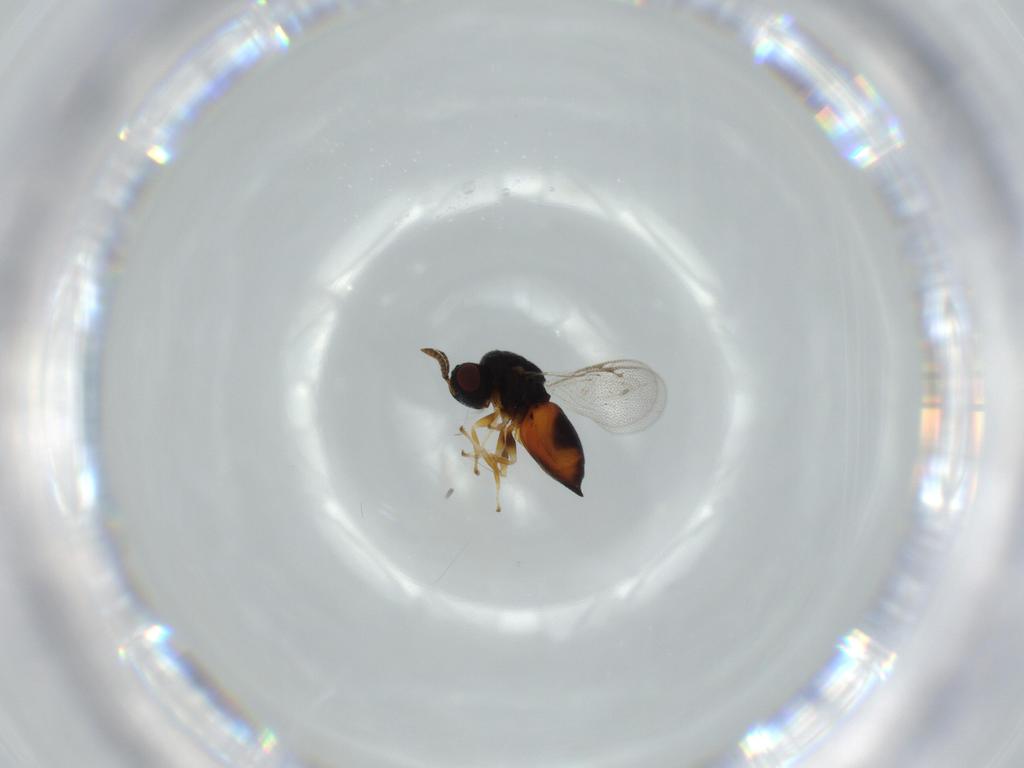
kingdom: Animalia
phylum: Arthropoda
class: Insecta
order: Hymenoptera
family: Eurytomidae
